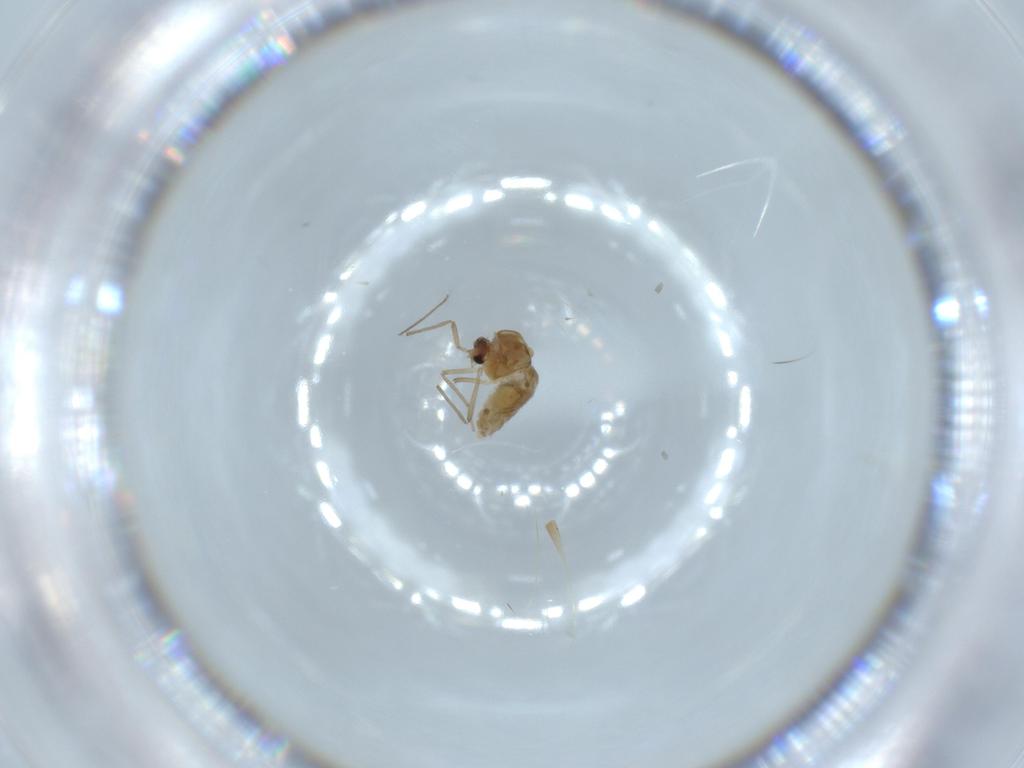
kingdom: Animalia
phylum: Arthropoda
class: Insecta
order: Diptera
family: Chironomidae
